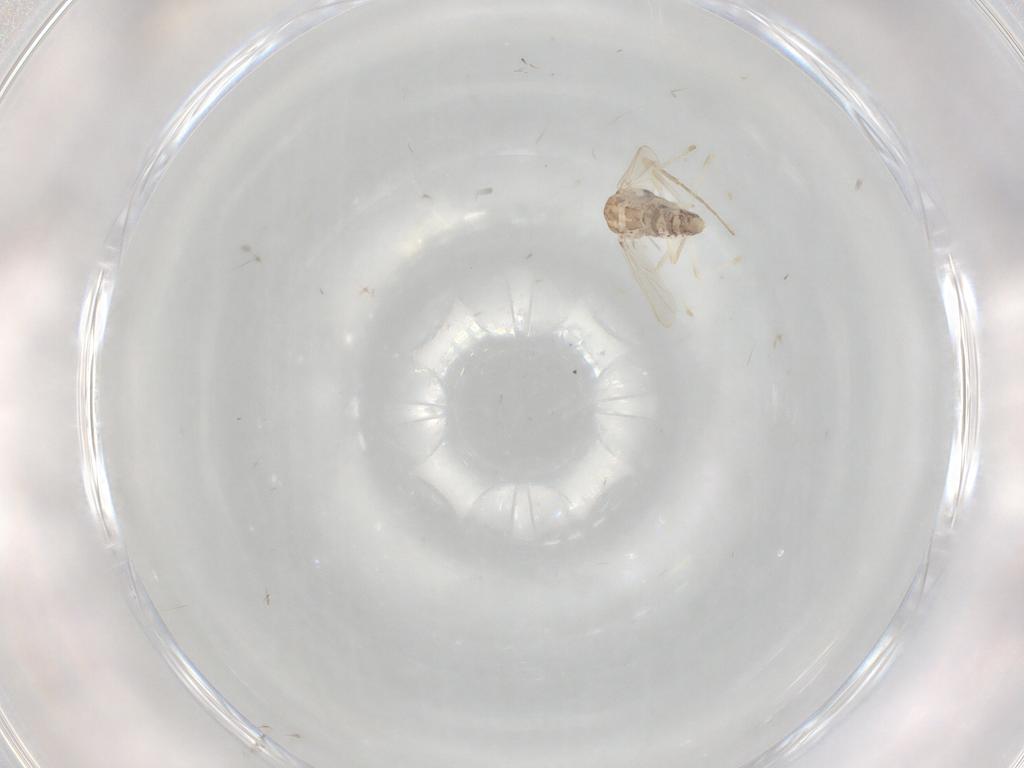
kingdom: Animalia
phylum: Arthropoda
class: Insecta
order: Diptera
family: Chironomidae
